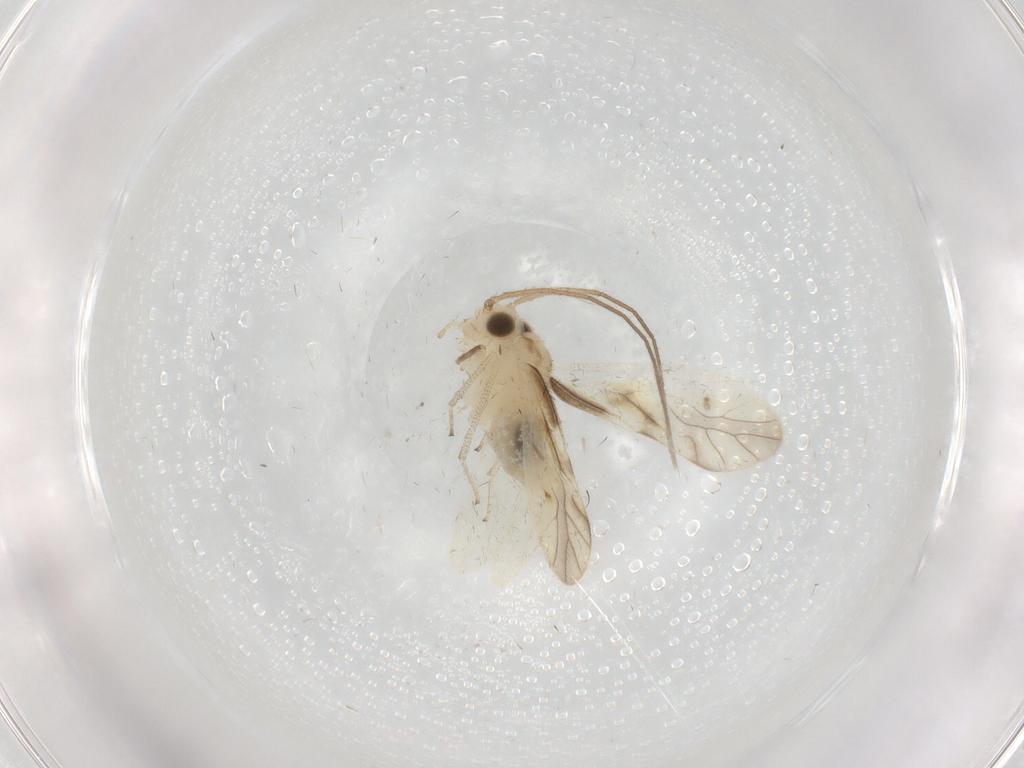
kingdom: Animalia
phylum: Arthropoda
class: Insecta
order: Psocodea
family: Caeciliusidae
